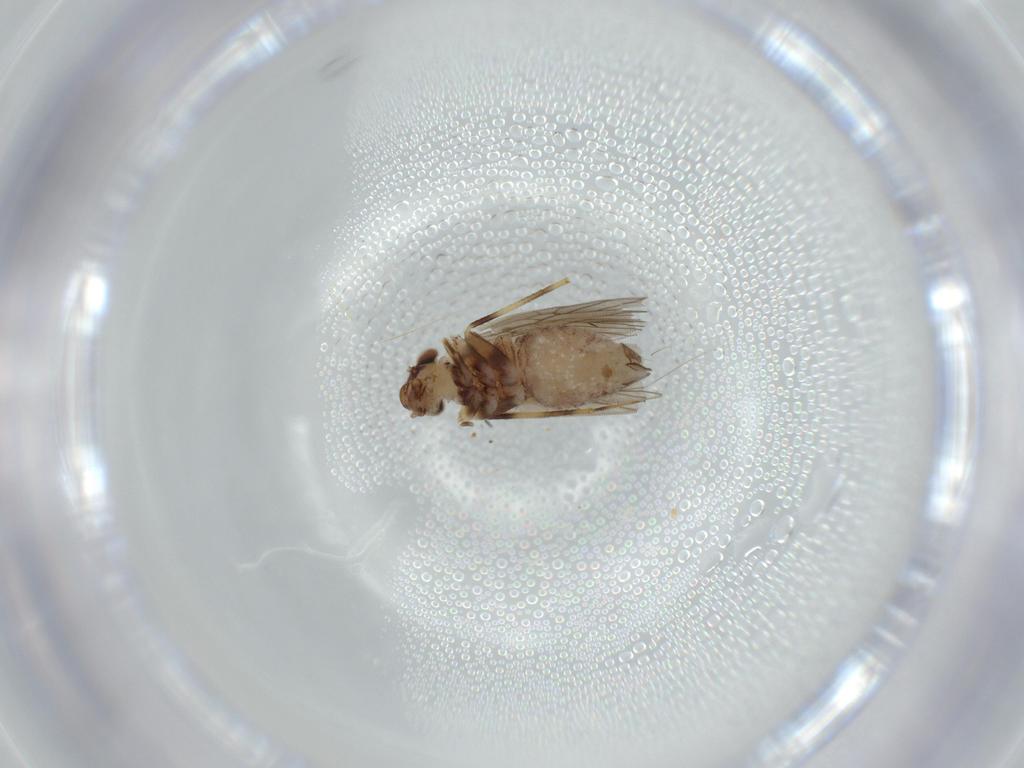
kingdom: Animalia
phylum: Arthropoda
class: Insecta
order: Psocodea
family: Lepidopsocidae
